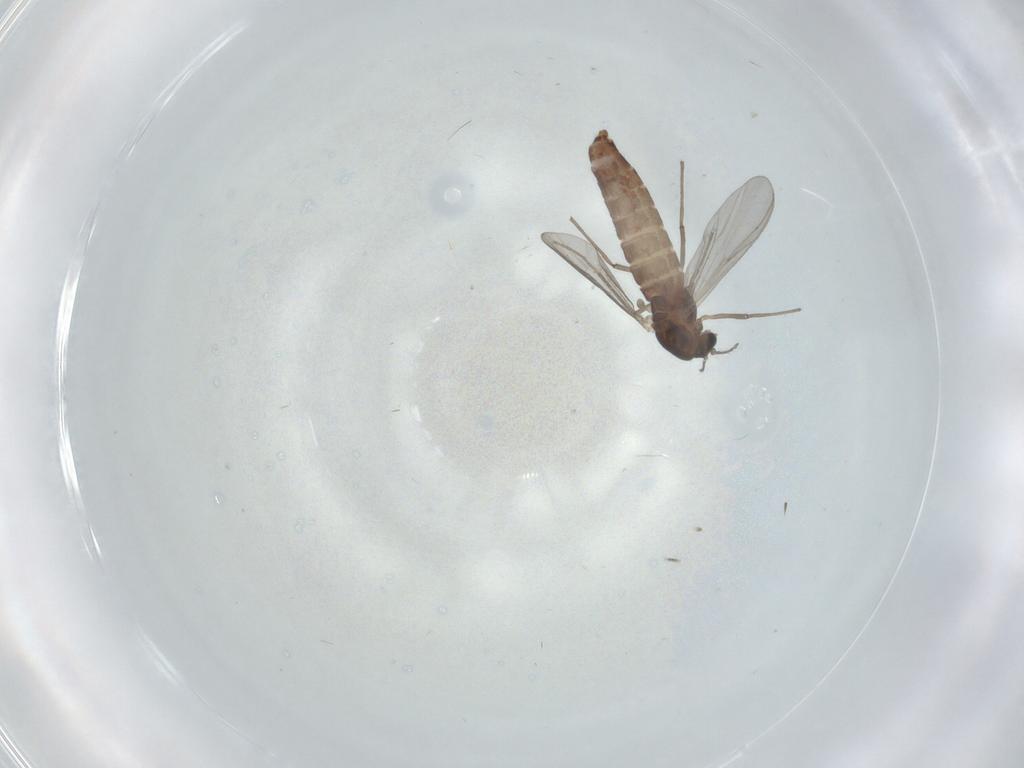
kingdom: Animalia
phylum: Arthropoda
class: Insecta
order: Diptera
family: Chironomidae
